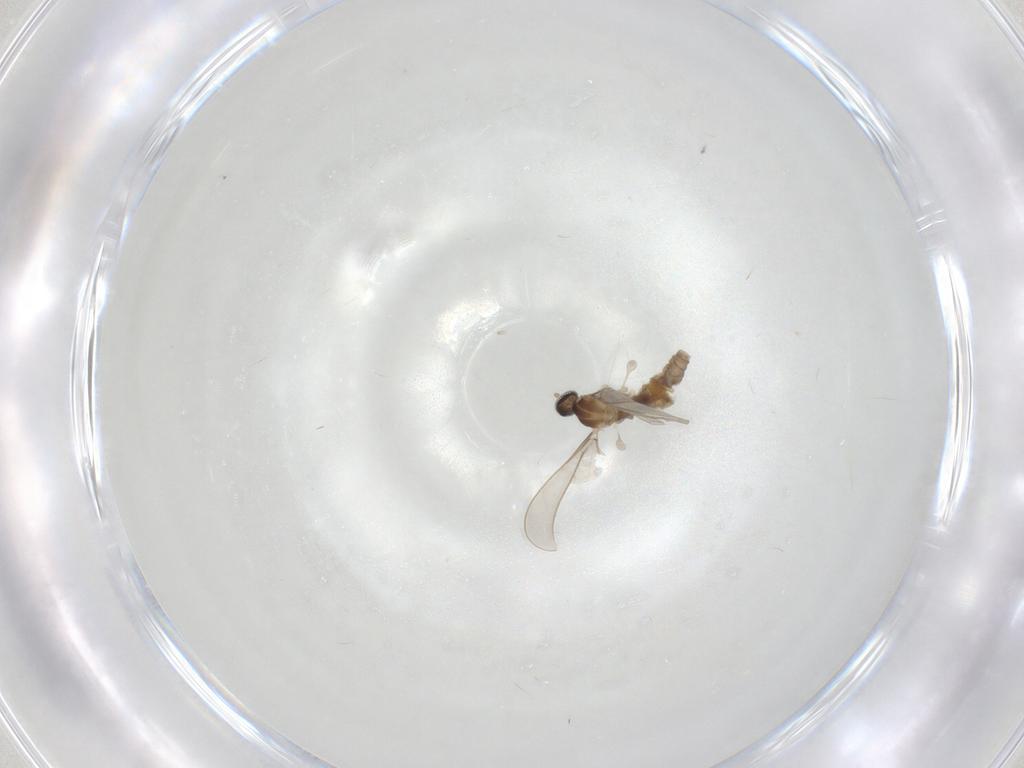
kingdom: Animalia
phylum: Arthropoda
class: Insecta
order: Diptera
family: Cecidomyiidae
